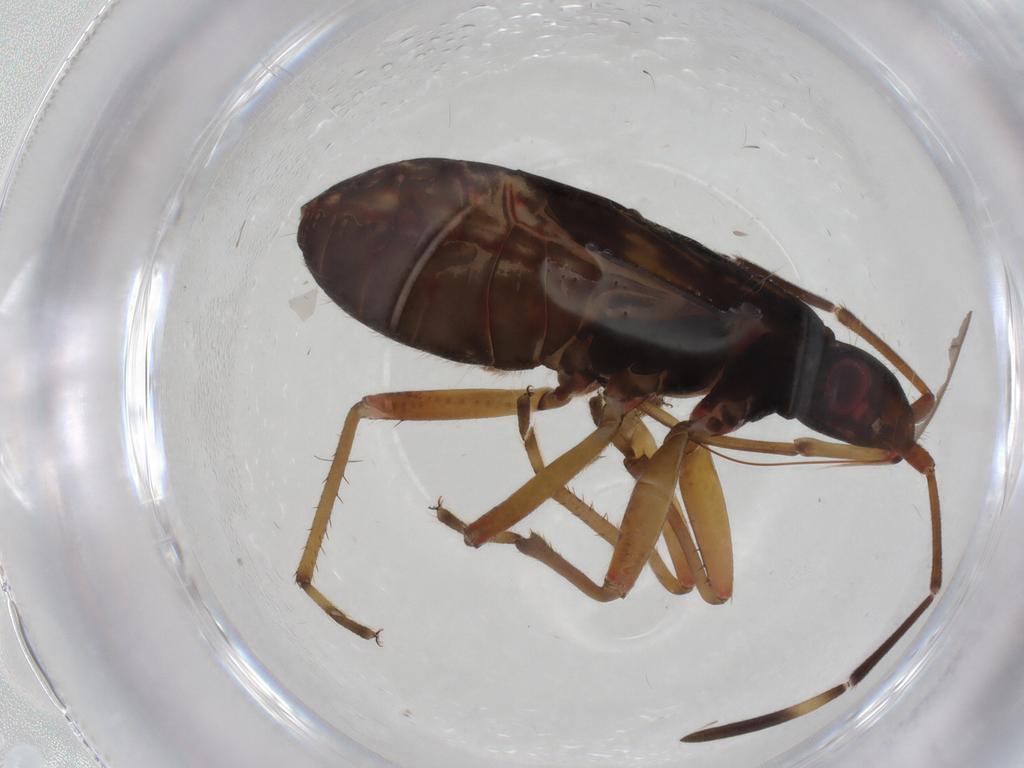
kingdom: Animalia
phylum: Arthropoda
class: Insecta
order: Hemiptera
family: Rhyparochromidae
